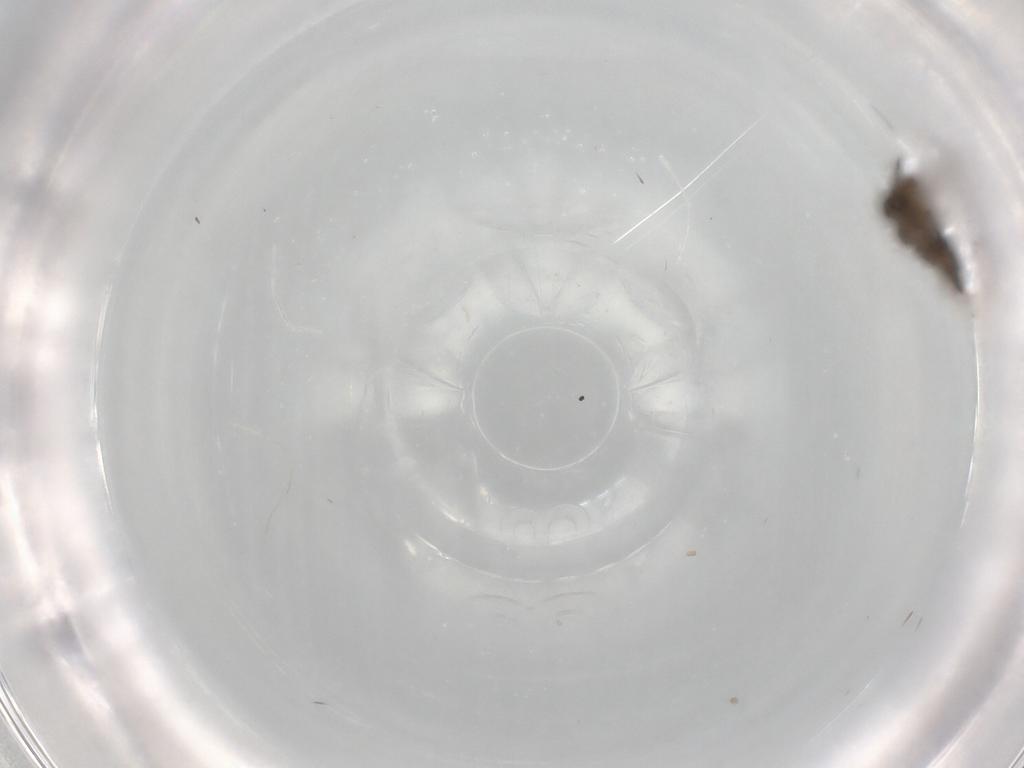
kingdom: Animalia
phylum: Arthropoda
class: Insecta
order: Diptera
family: Cecidomyiidae
